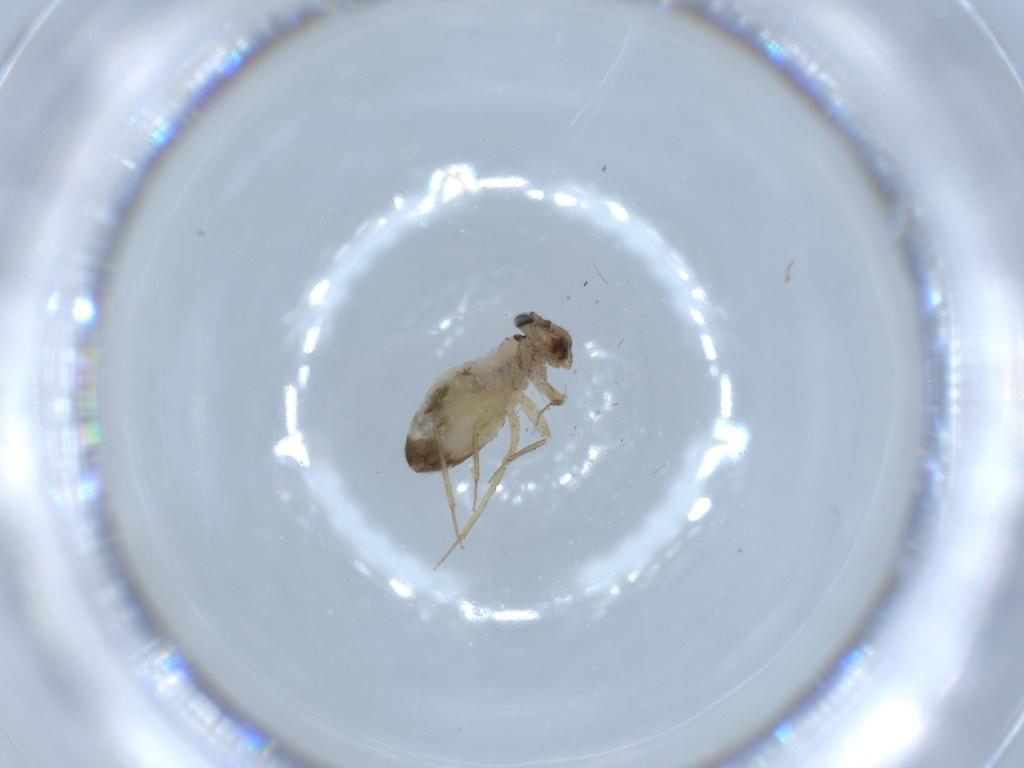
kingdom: Animalia
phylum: Arthropoda
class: Insecta
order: Psocodea
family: Lepidopsocidae
